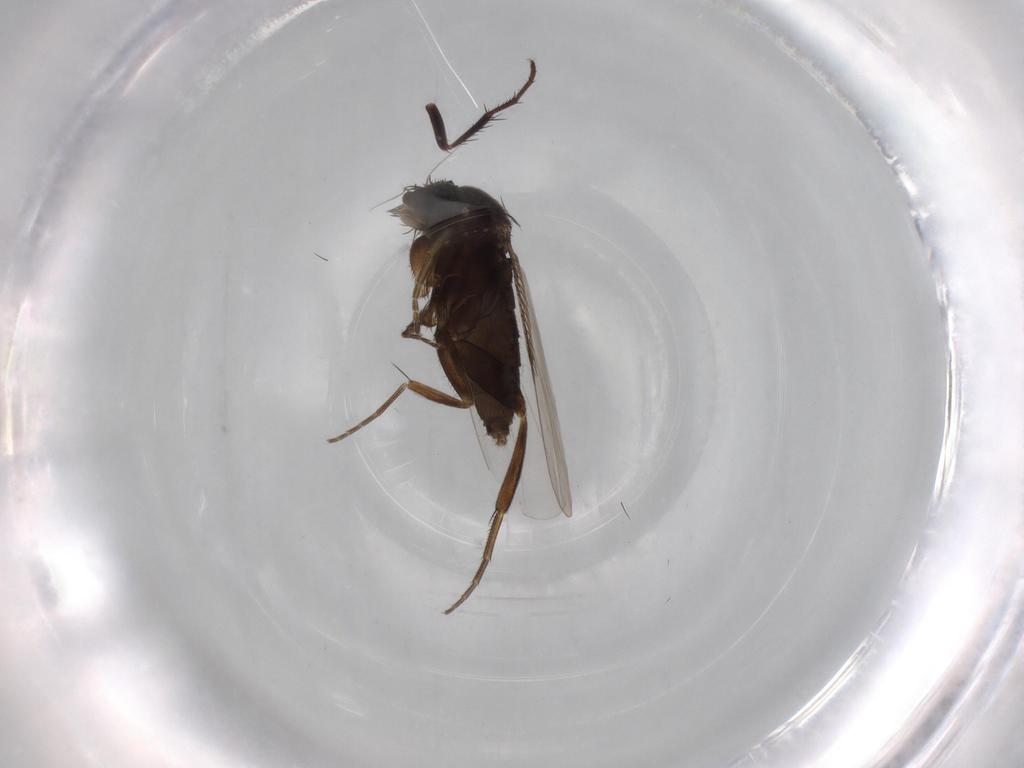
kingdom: Animalia
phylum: Arthropoda
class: Insecta
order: Diptera
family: Phoridae
